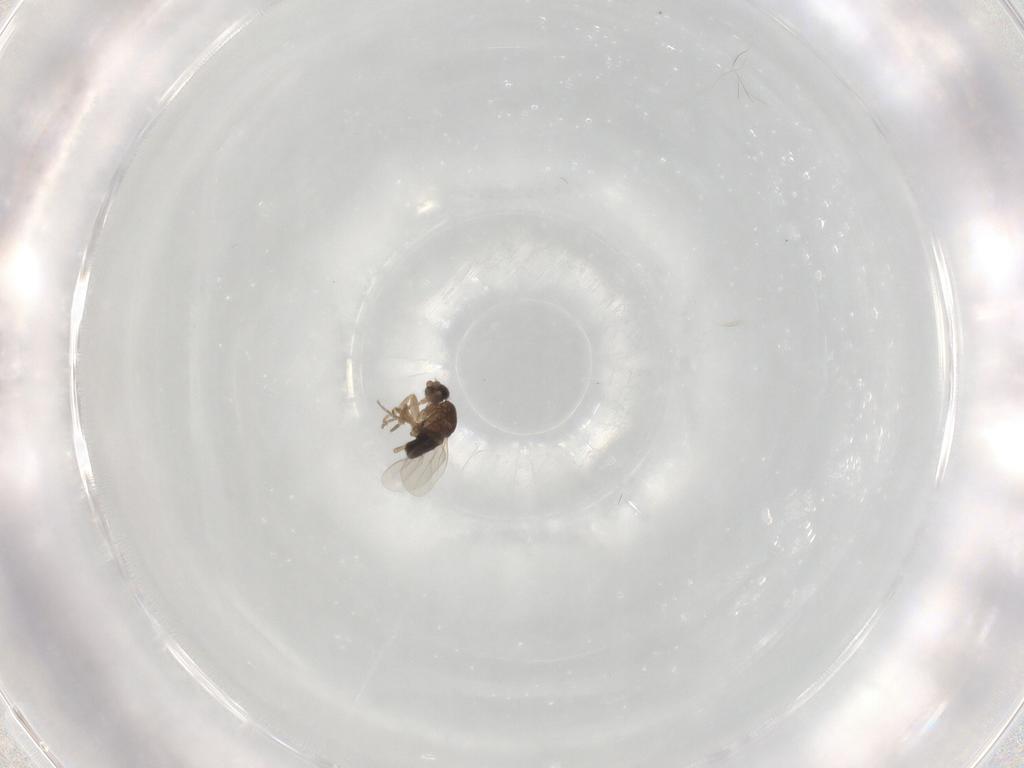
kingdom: Animalia
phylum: Arthropoda
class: Insecta
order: Diptera
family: Phoridae
